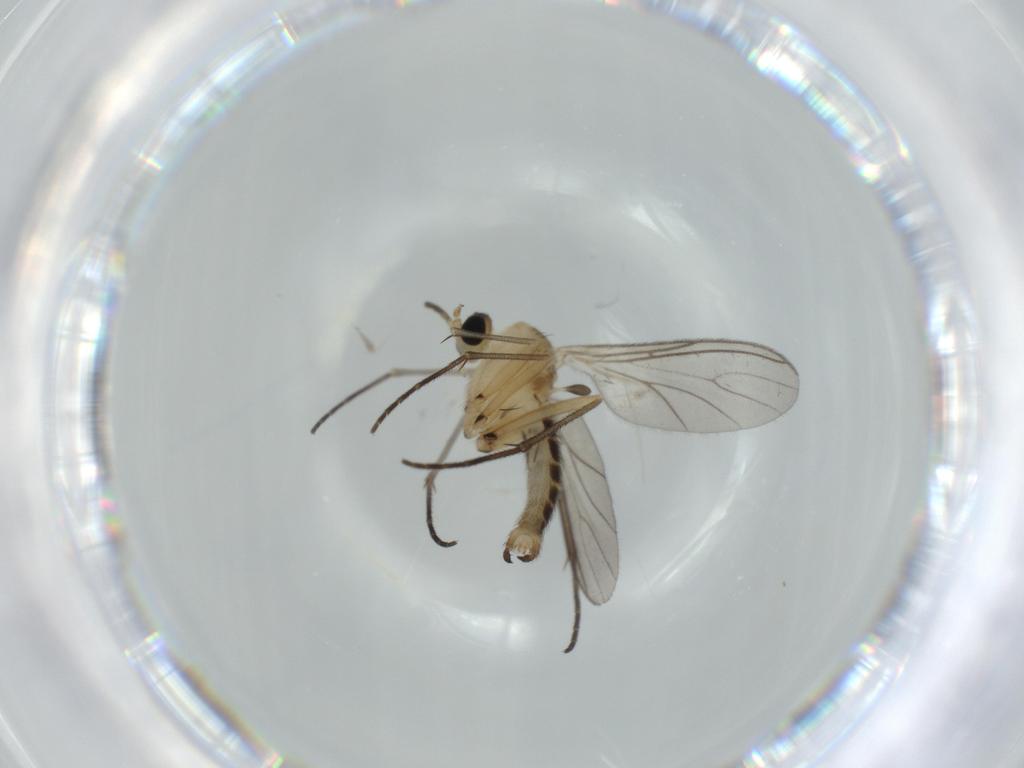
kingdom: Animalia
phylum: Arthropoda
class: Insecta
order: Diptera
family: Sciaridae
